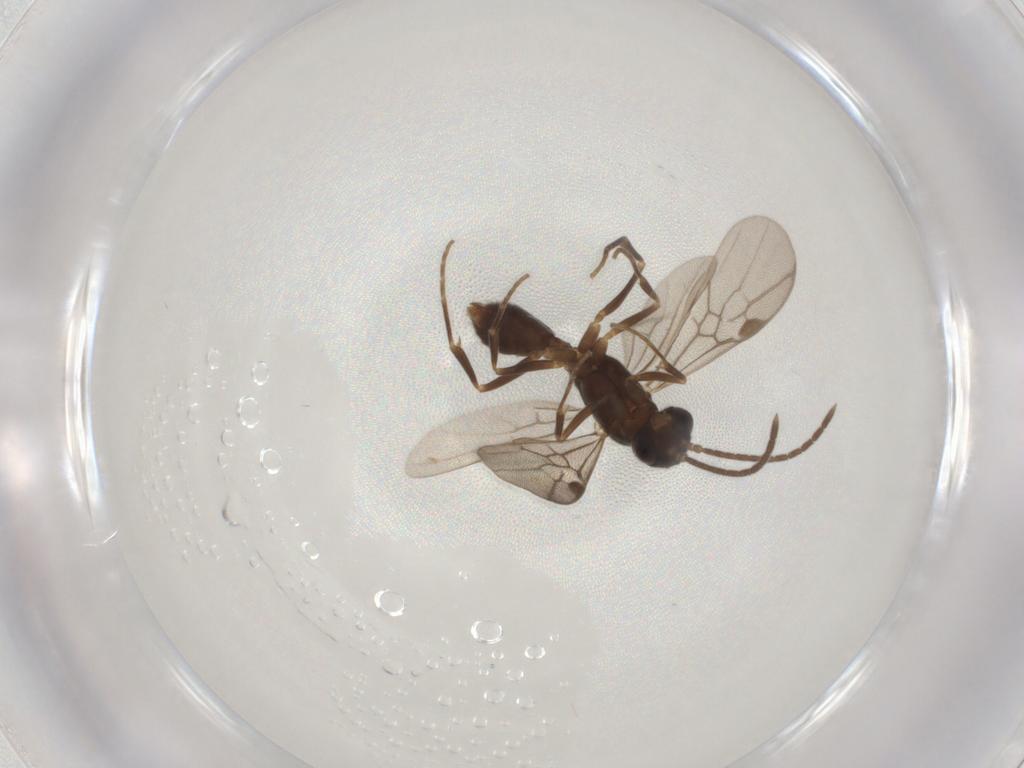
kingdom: Animalia
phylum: Arthropoda
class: Insecta
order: Hymenoptera
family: Formicidae
